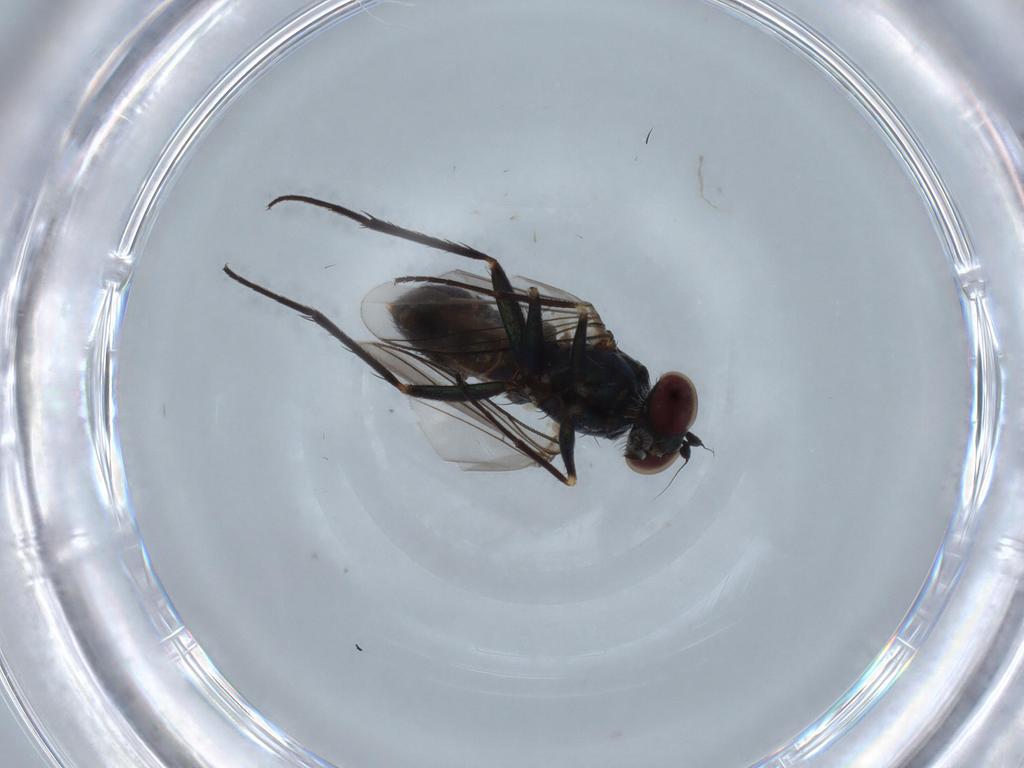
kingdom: Animalia
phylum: Arthropoda
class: Insecta
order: Diptera
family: Dolichopodidae
